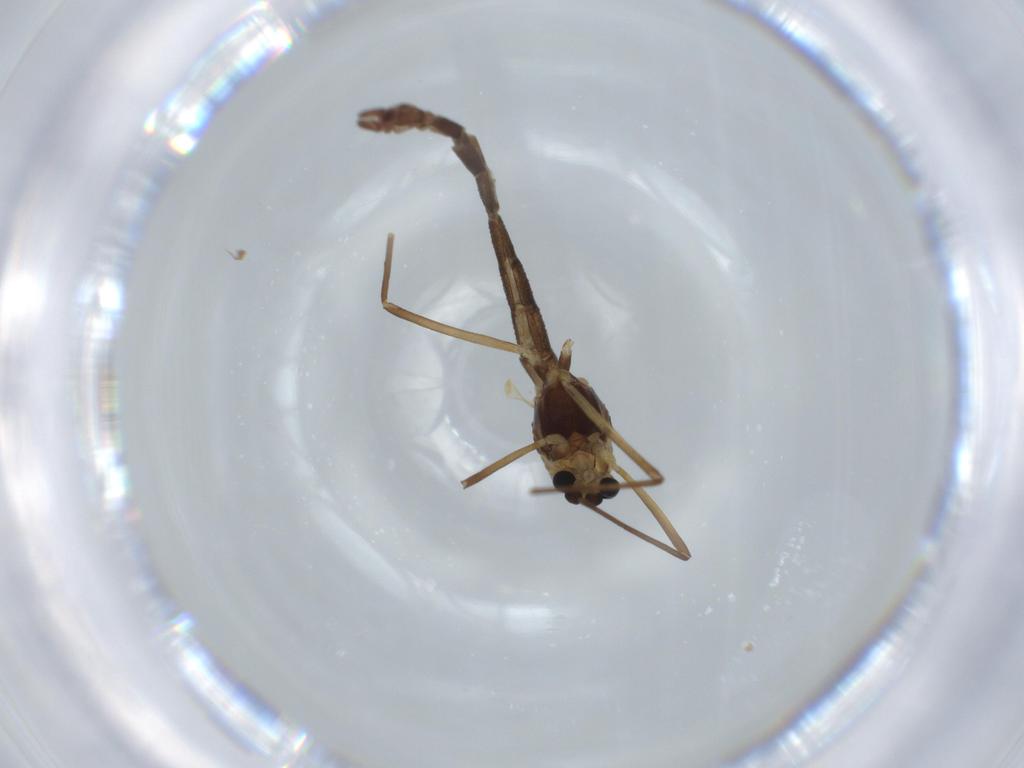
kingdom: Animalia
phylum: Arthropoda
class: Insecta
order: Diptera
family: Chironomidae
